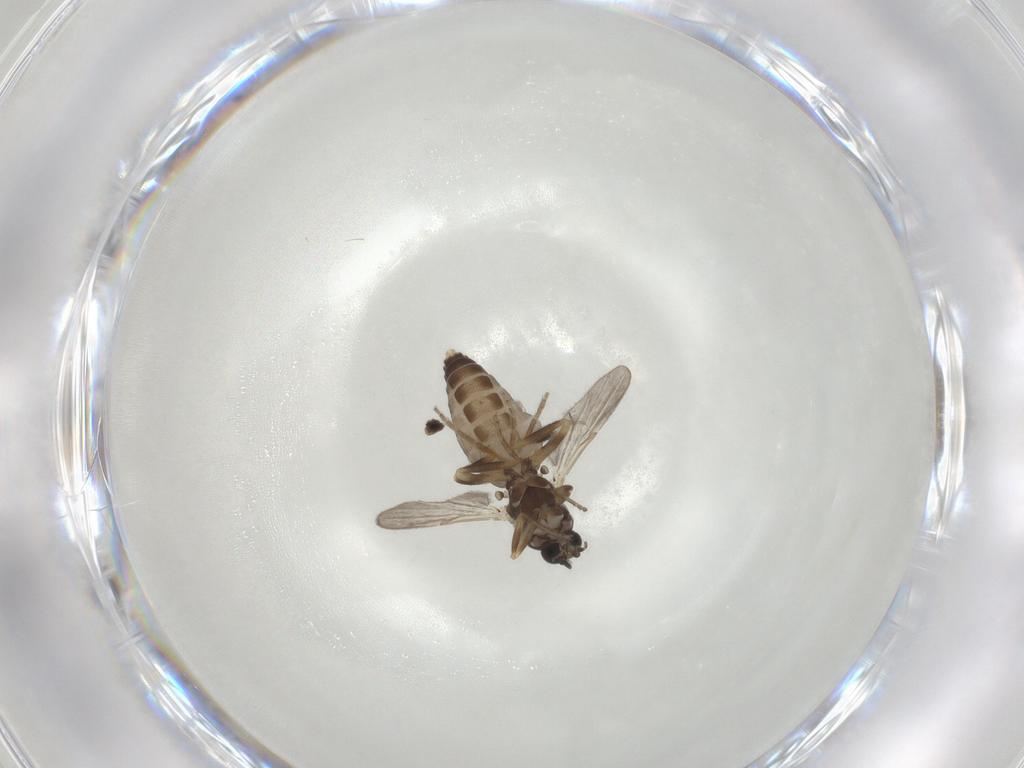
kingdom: Animalia
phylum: Arthropoda
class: Insecta
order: Diptera
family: Ceratopogonidae
